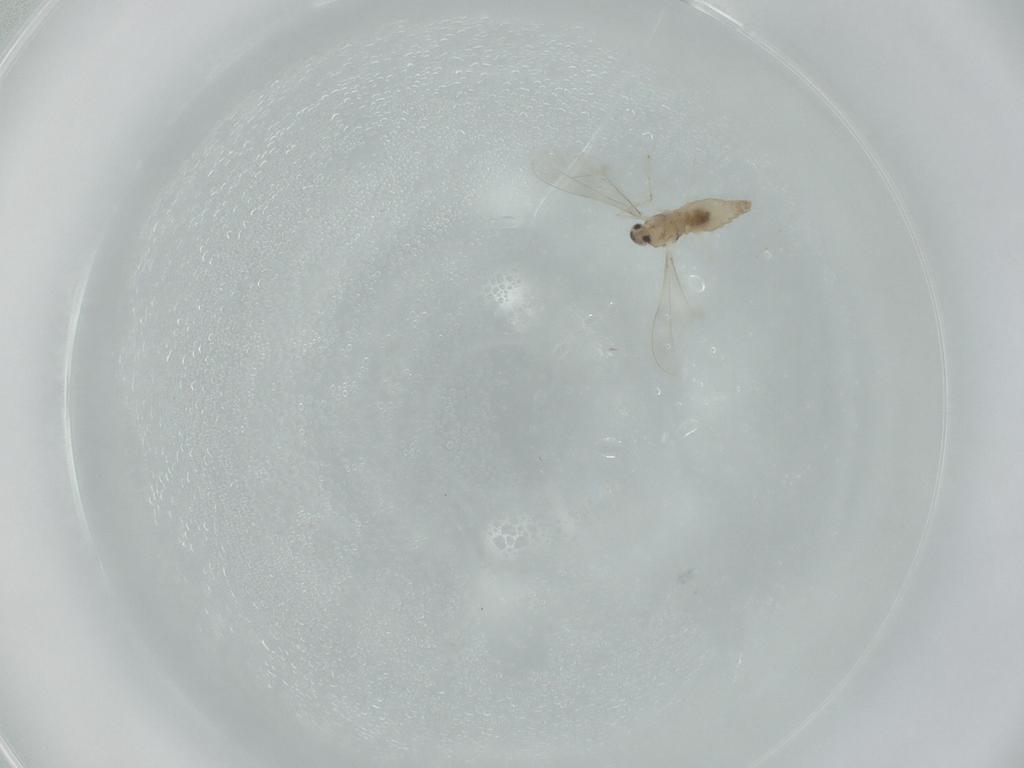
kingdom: Animalia
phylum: Arthropoda
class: Insecta
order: Diptera
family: Cecidomyiidae
